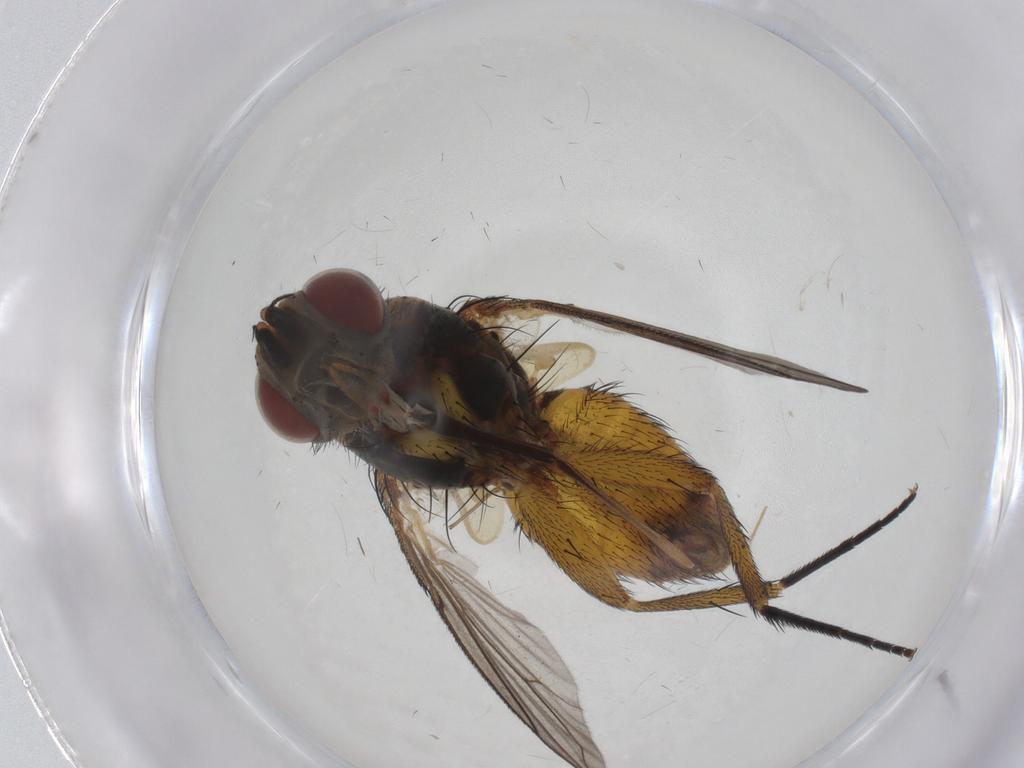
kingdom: Animalia
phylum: Arthropoda
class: Insecta
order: Diptera
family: Tachinidae
